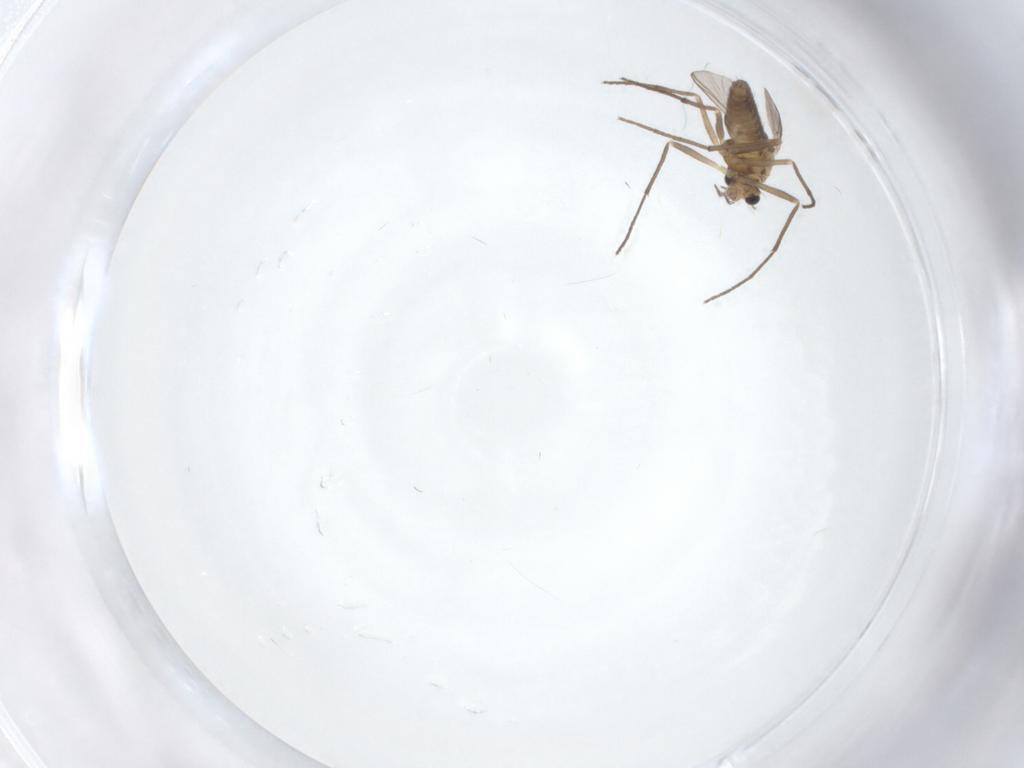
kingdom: Animalia
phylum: Arthropoda
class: Insecta
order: Diptera
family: Chironomidae
